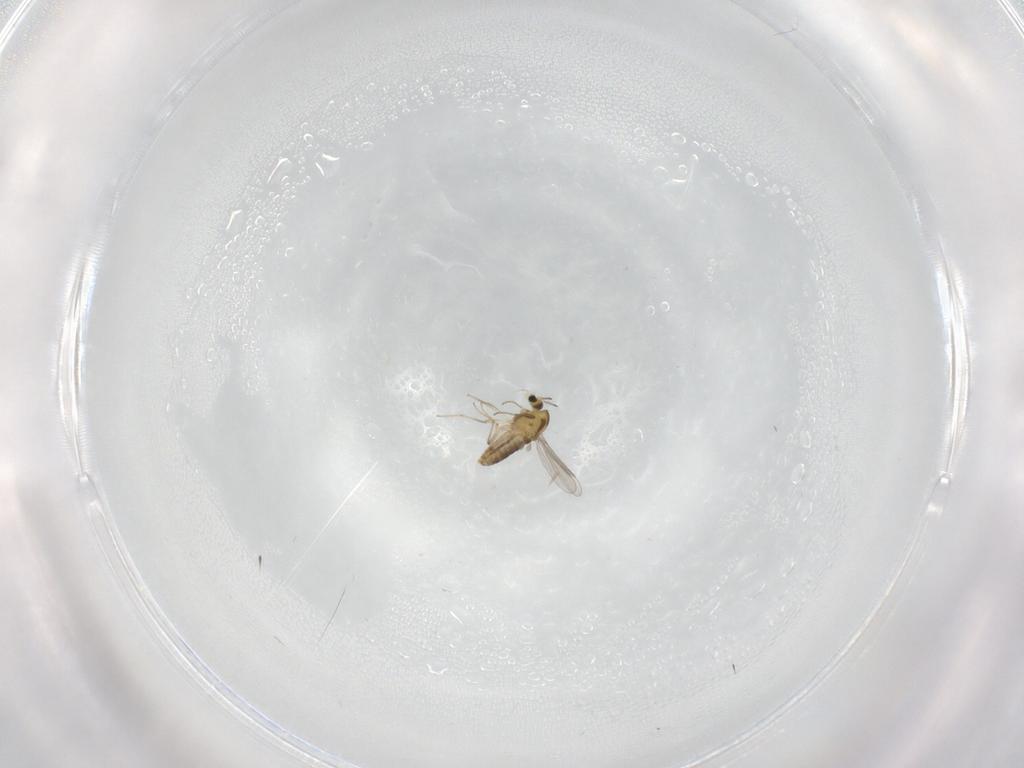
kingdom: Animalia
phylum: Arthropoda
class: Insecta
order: Diptera
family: Chironomidae
